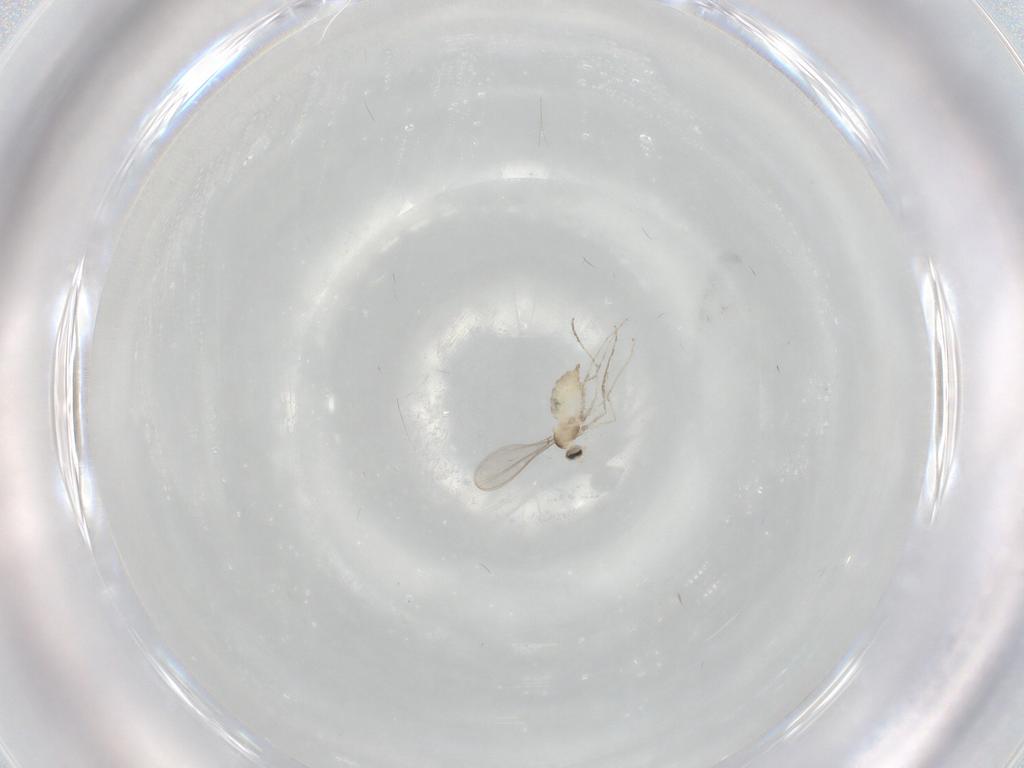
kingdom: Animalia
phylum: Arthropoda
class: Insecta
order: Diptera
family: Cecidomyiidae
